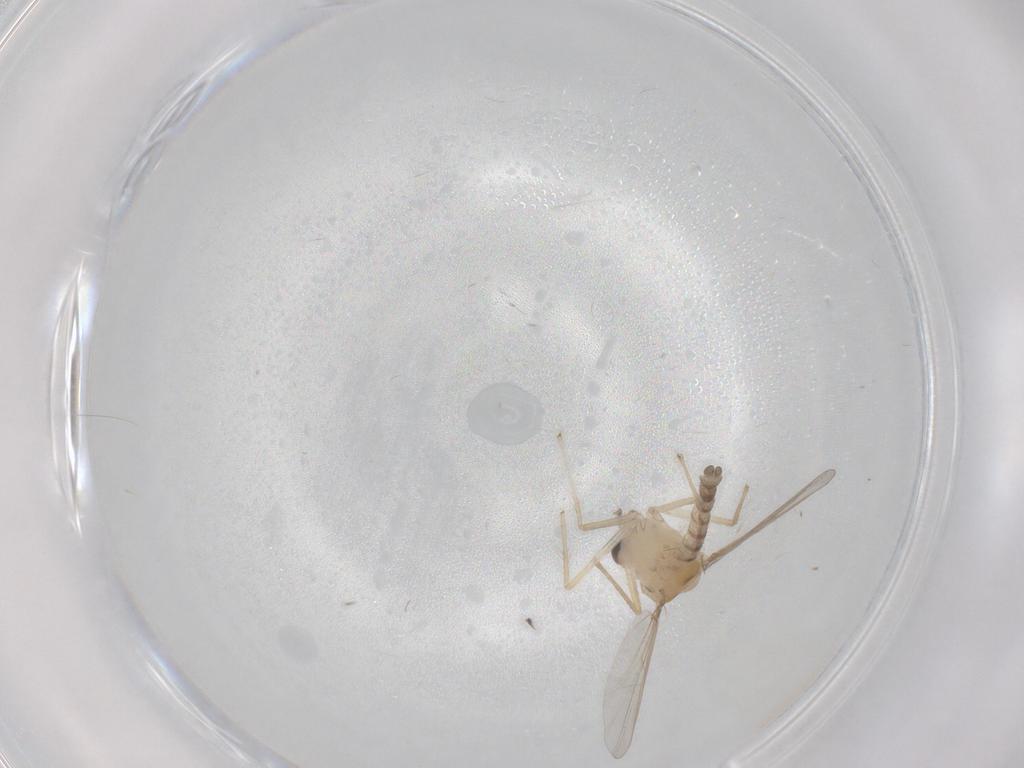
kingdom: Animalia
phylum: Arthropoda
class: Insecta
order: Diptera
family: Chironomidae
